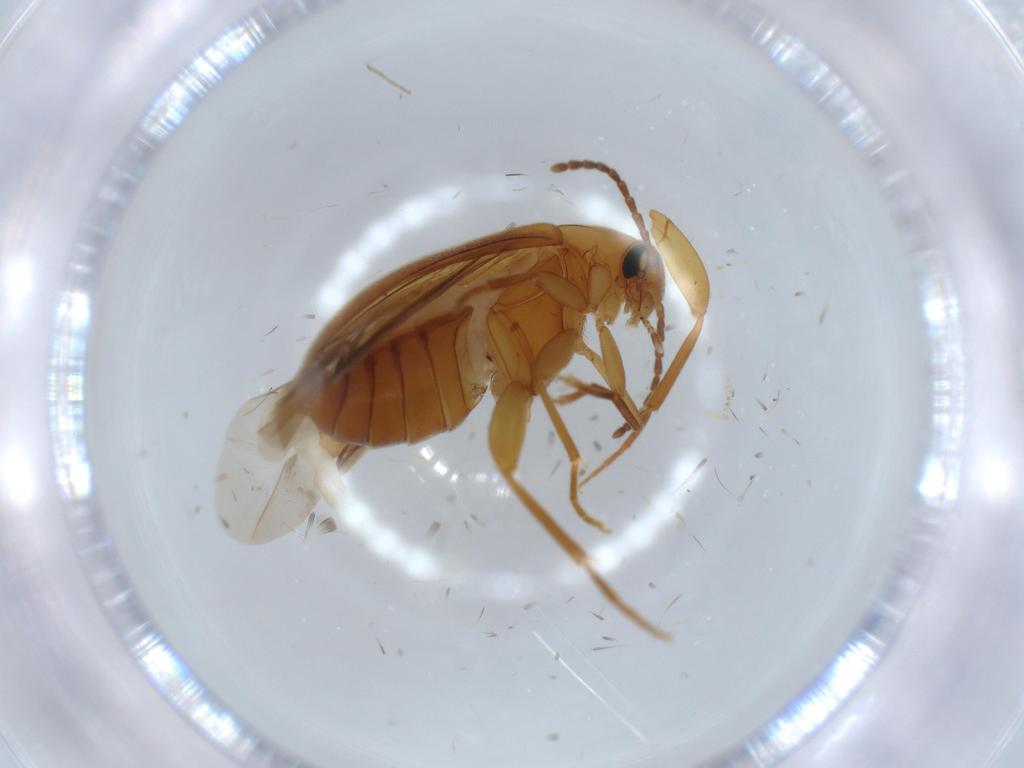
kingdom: Animalia
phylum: Arthropoda
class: Insecta
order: Coleoptera
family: Scraptiidae
